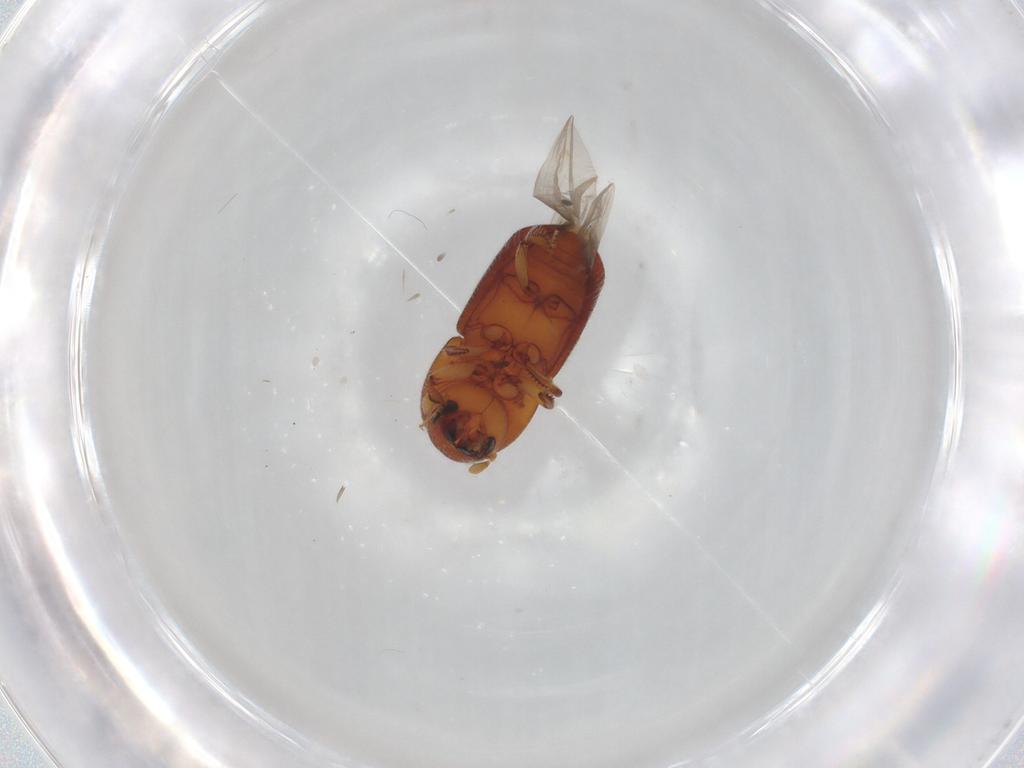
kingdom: Animalia
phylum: Arthropoda
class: Insecta
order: Coleoptera
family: Curculionidae
